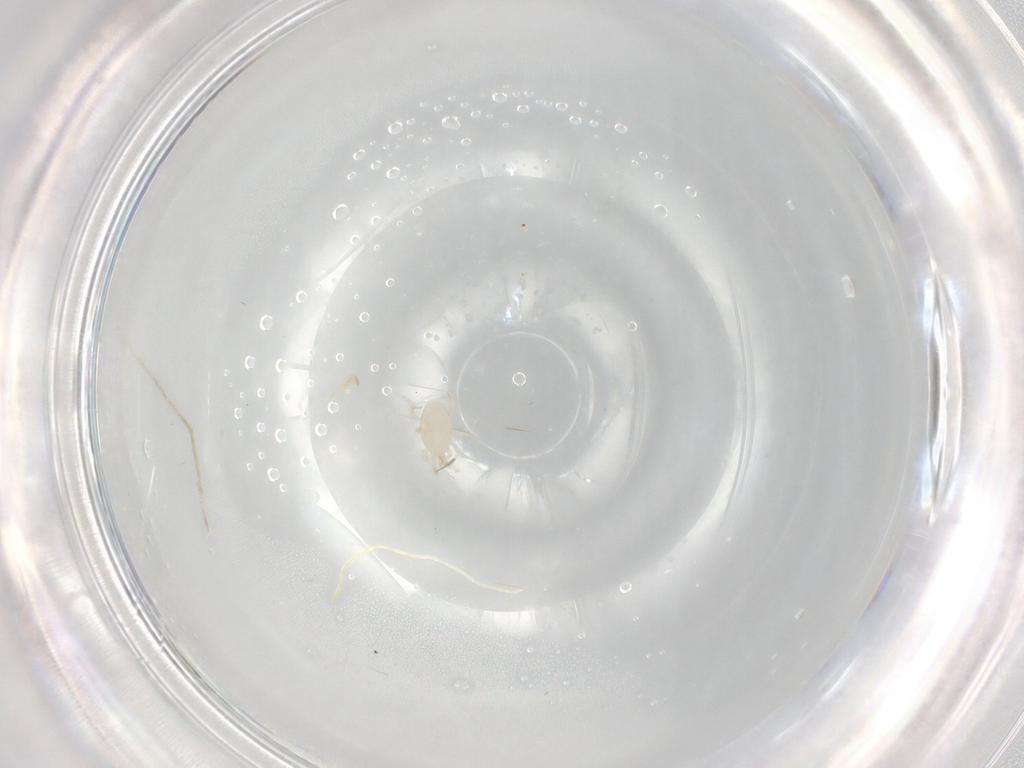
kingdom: Animalia
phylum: Arthropoda
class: Arachnida
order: Mesostigmata
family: Melicharidae
